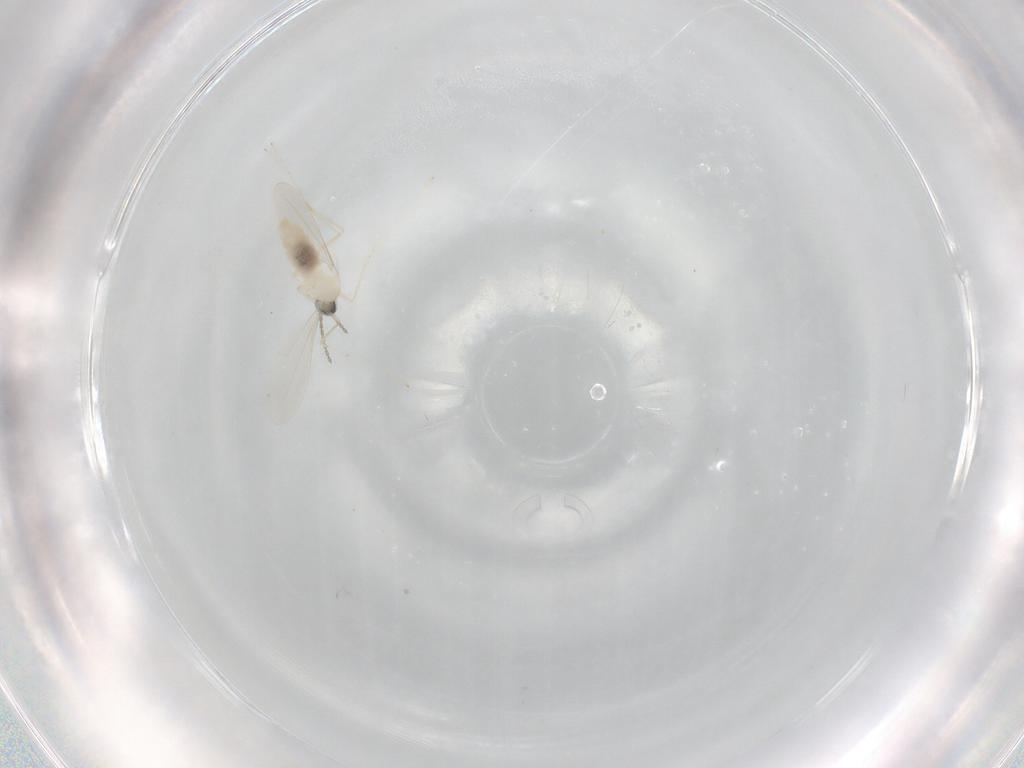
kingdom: Animalia
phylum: Arthropoda
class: Insecta
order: Diptera
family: Cecidomyiidae
